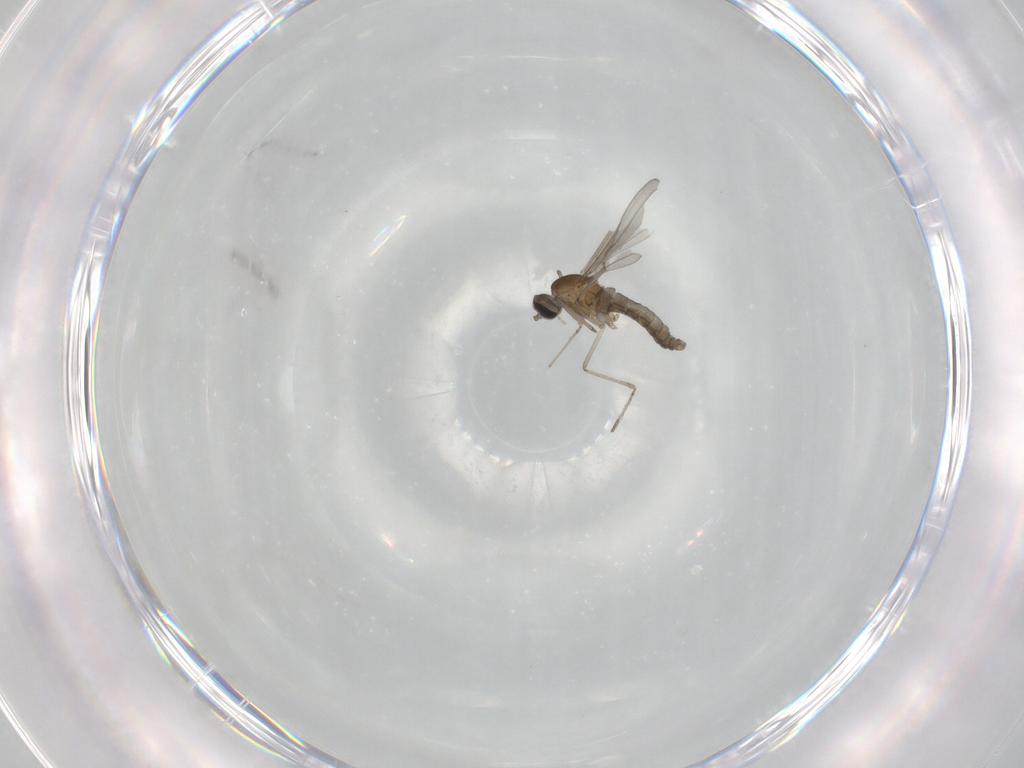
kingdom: Animalia
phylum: Arthropoda
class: Insecta
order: Diptera
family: Cecidomyiidae
